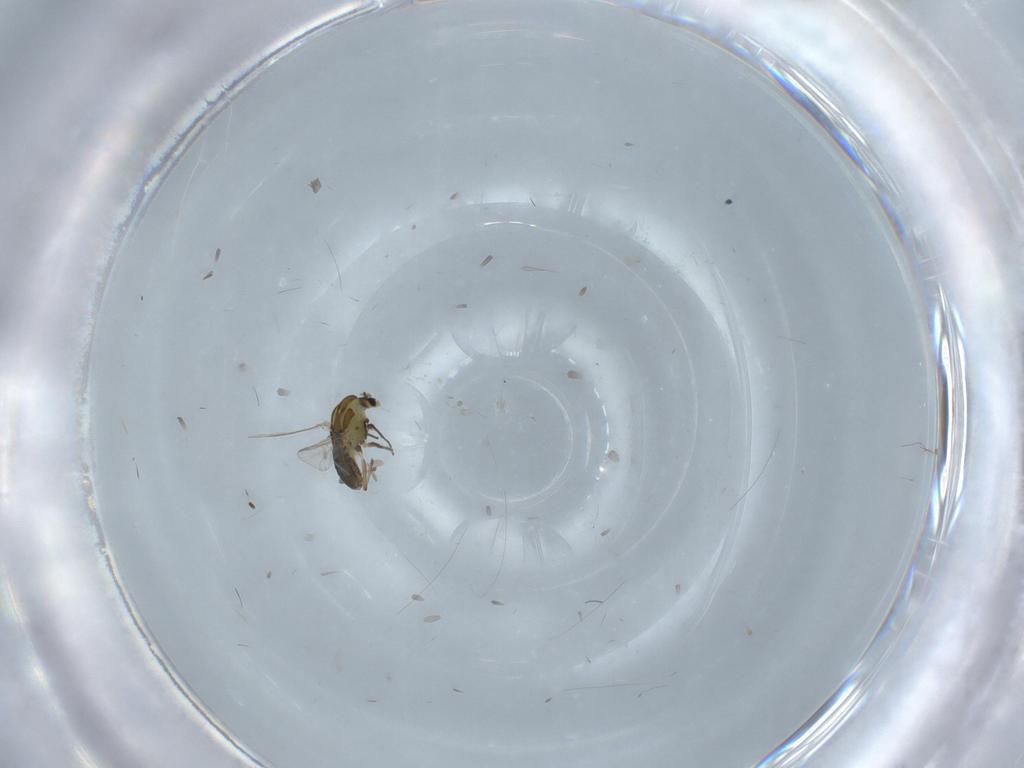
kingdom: Animalia
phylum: Arthropoda
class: Insecta
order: Diptera
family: Chironomidae
